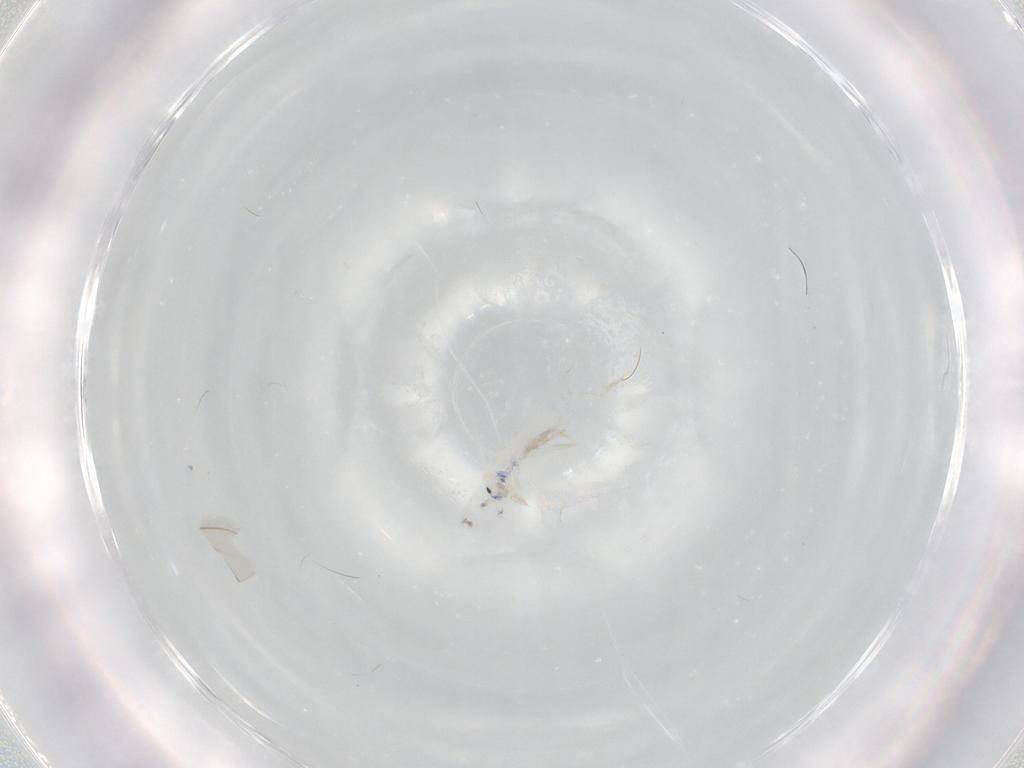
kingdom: Animalia
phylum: Arthropoda
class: Collembola
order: Entomobryomorpha
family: Entomobryidae
